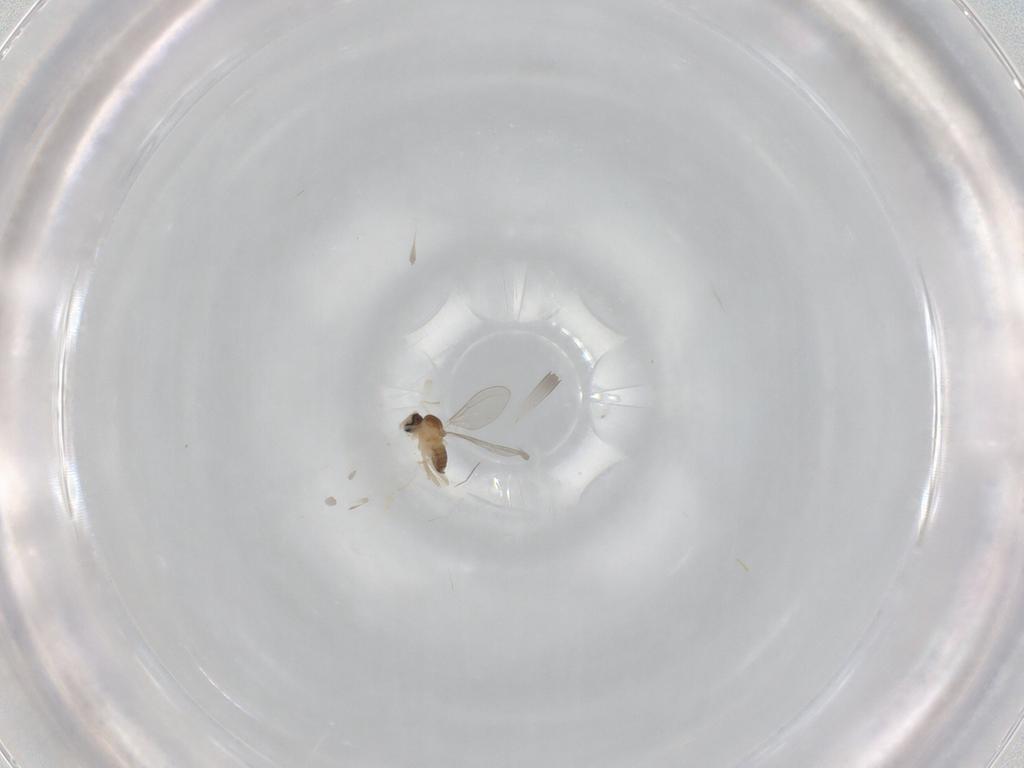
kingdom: Animalia
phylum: Arthropoda
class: Insecta
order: Diptera
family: Cecidomyiidae
